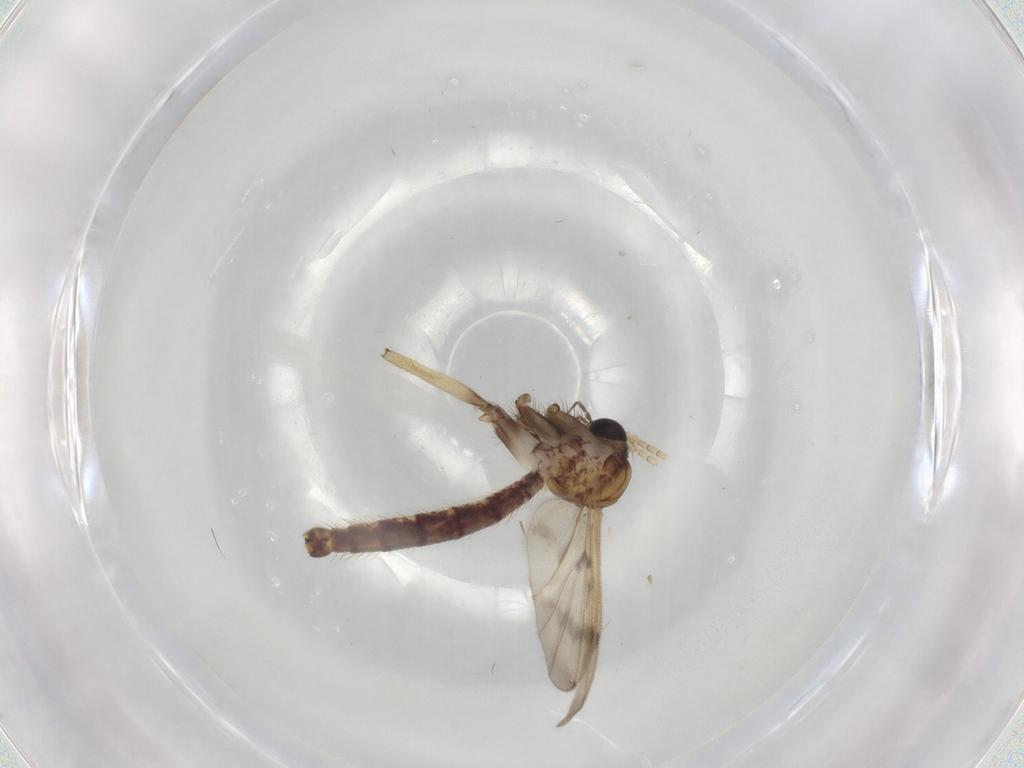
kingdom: Animalia
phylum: Arthropoda
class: Insecta
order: Diptera
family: Mycetophilidae
